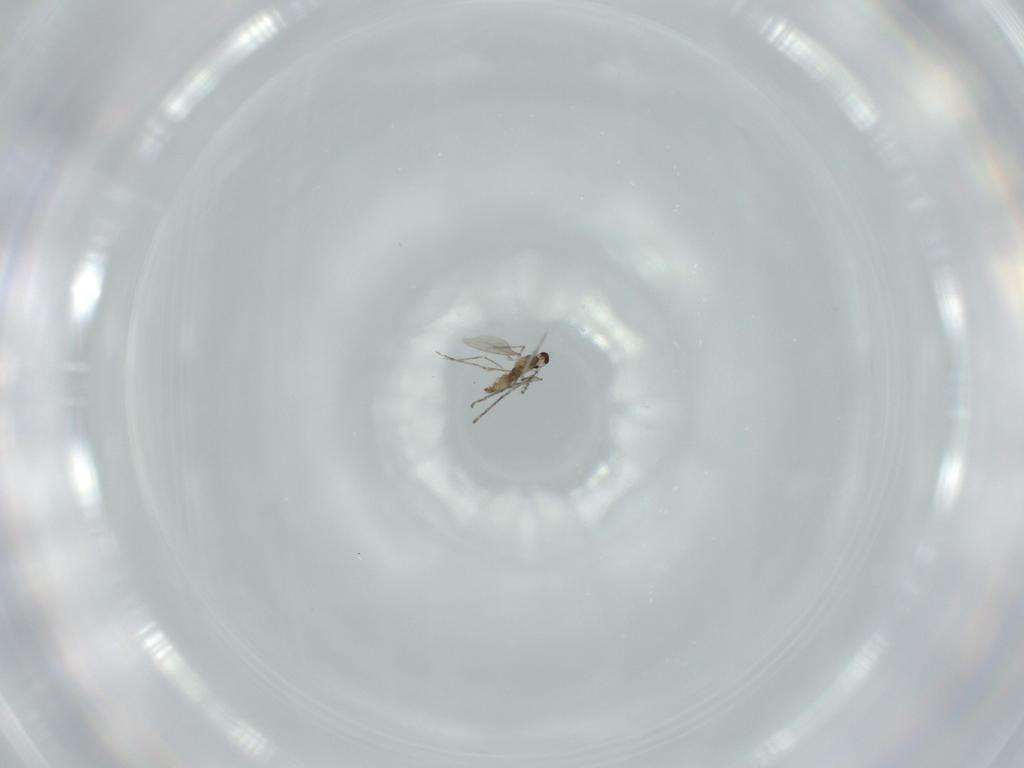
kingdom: Animalia
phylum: Arthropoda
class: Insecta
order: Diptera
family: Cecidomyiidae
